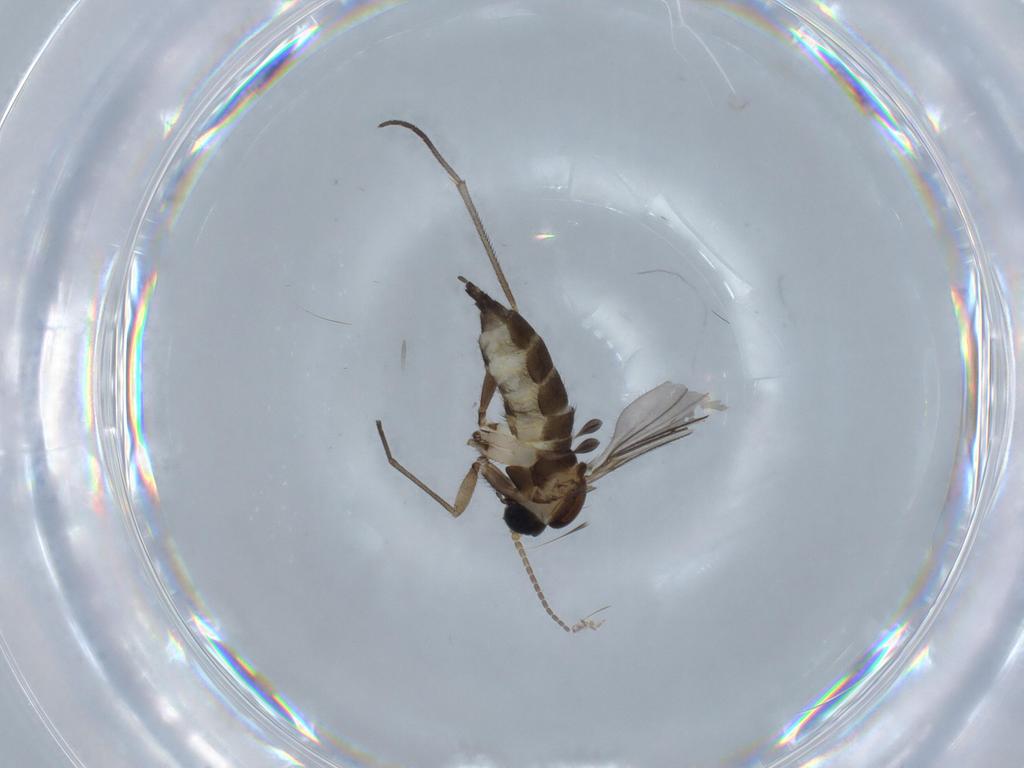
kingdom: Animalia
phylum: Arthropoda
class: Insecta
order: Diptera
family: Sciaridae
